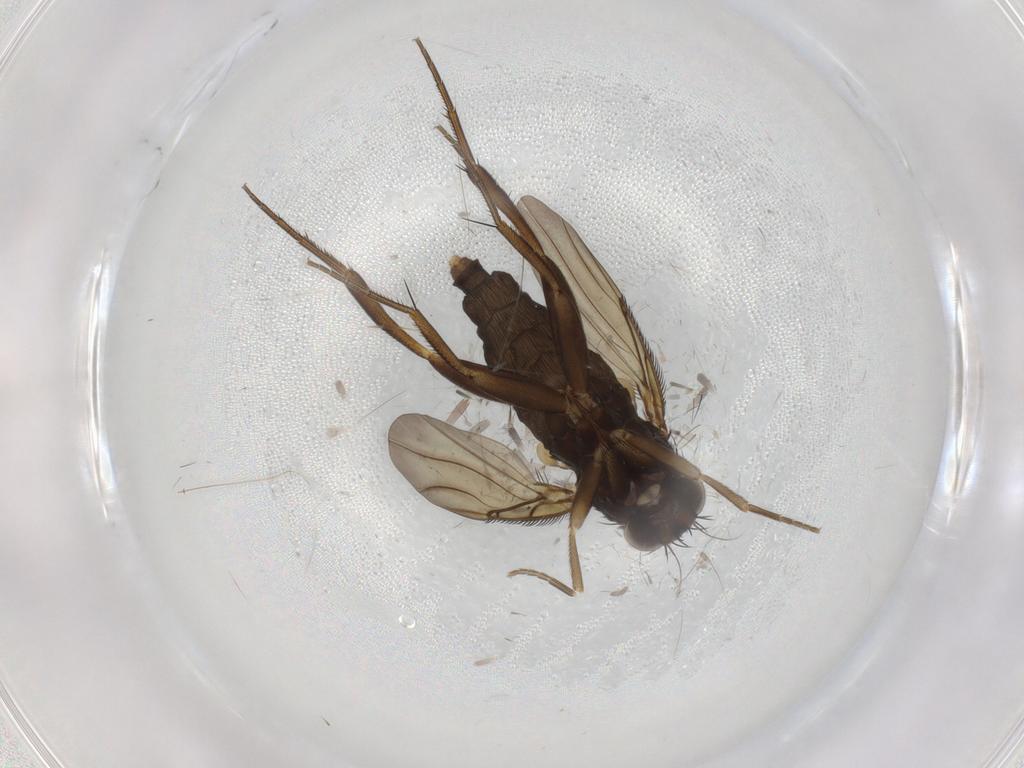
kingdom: Animalia
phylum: Arthropoda
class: Insecta
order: Diptera
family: Phoridae
